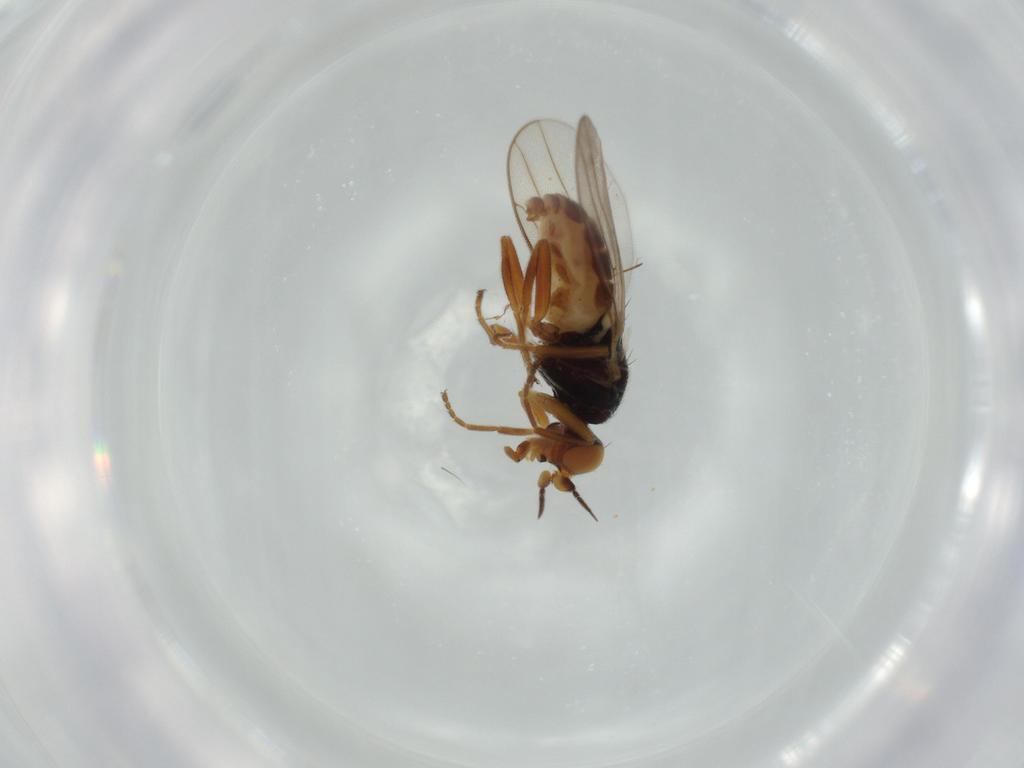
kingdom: Animalia
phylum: Arthropoda
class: Insecta
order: Diptera
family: Chloropidae
